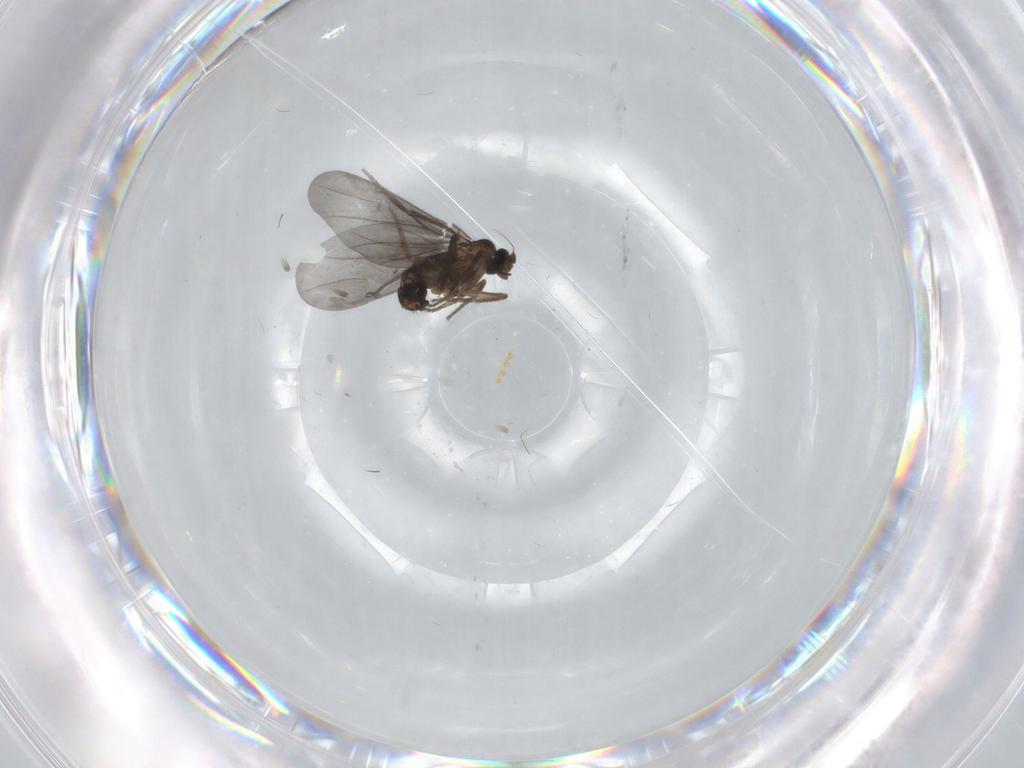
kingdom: Animalia
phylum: Arthropoda
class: Insecta
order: Diptera
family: Phoridae
